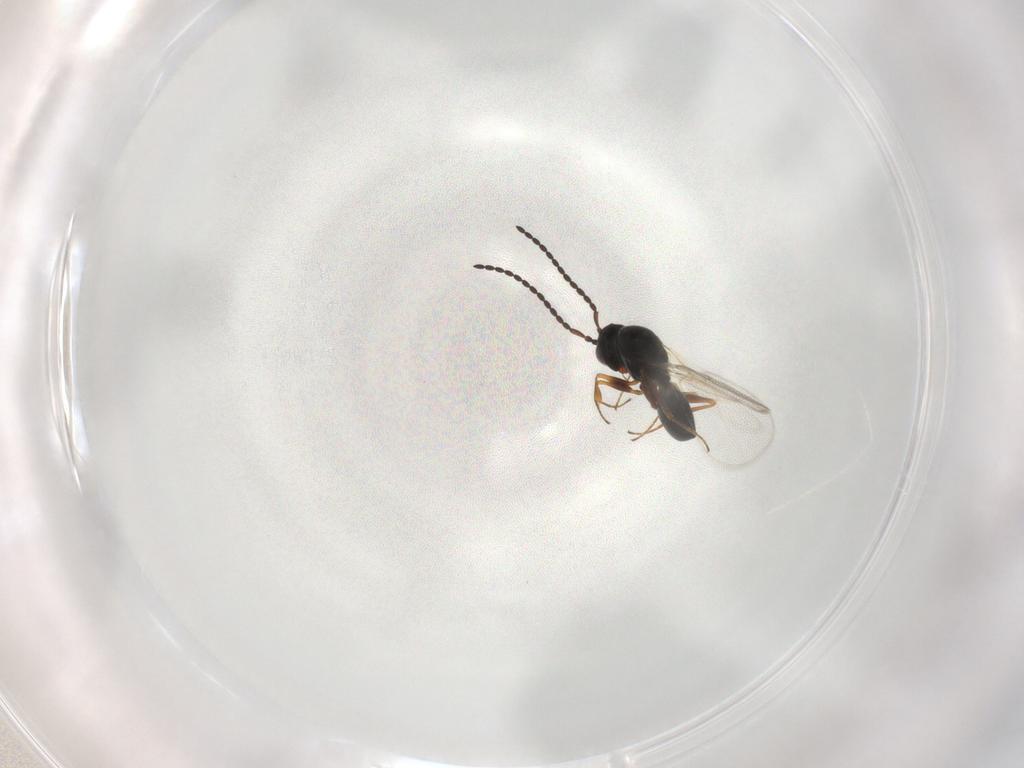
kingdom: Animalia
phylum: Arthropoda
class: Insecta
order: Hymenoptera
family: Figitidae
